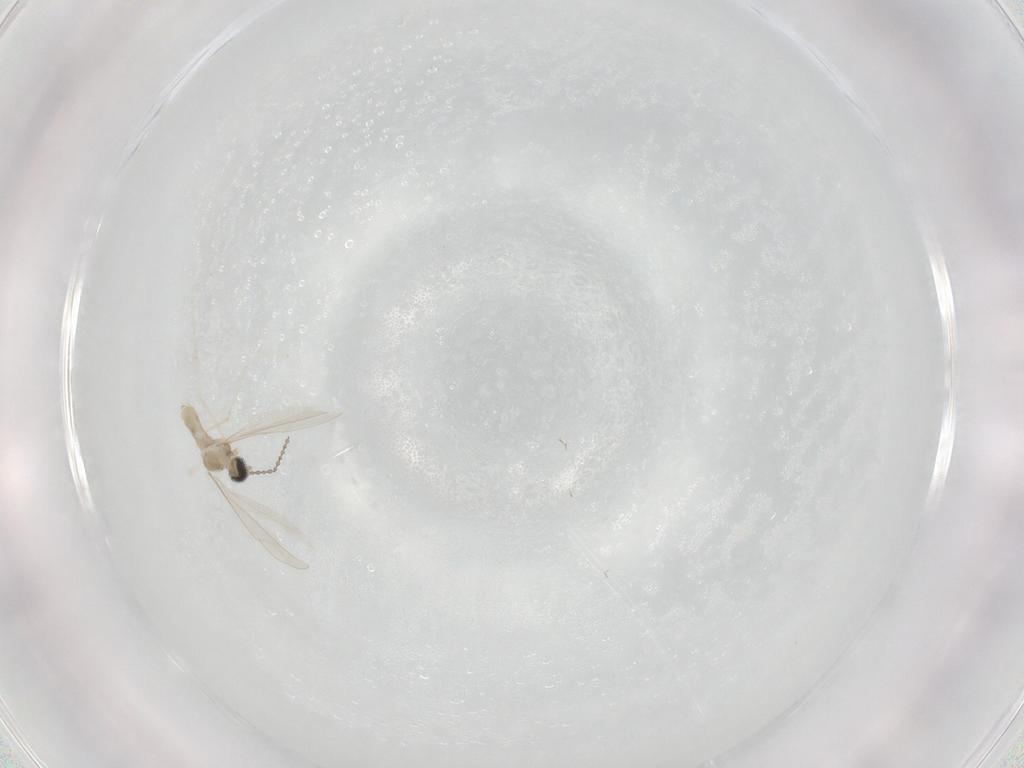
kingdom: Animalia
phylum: Arthropoda
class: Insecta
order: Diptera
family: Cecidomyiidae
